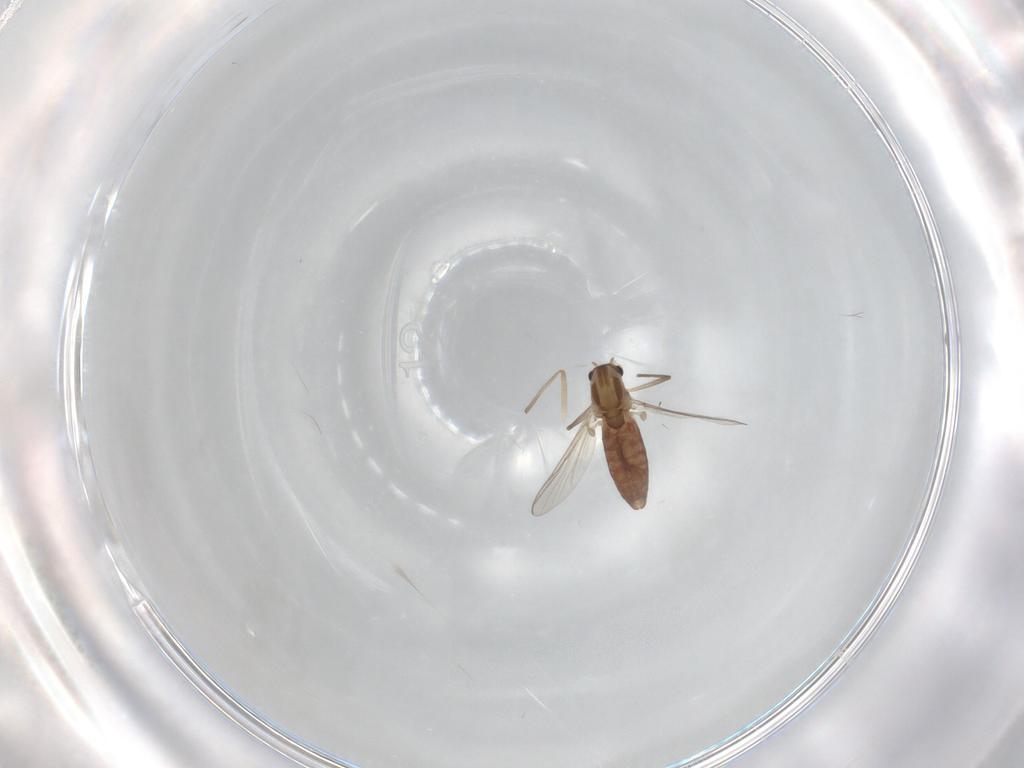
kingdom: Animalia
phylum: Arthropoda
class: Insecta
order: Diptera
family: Chironomidae
